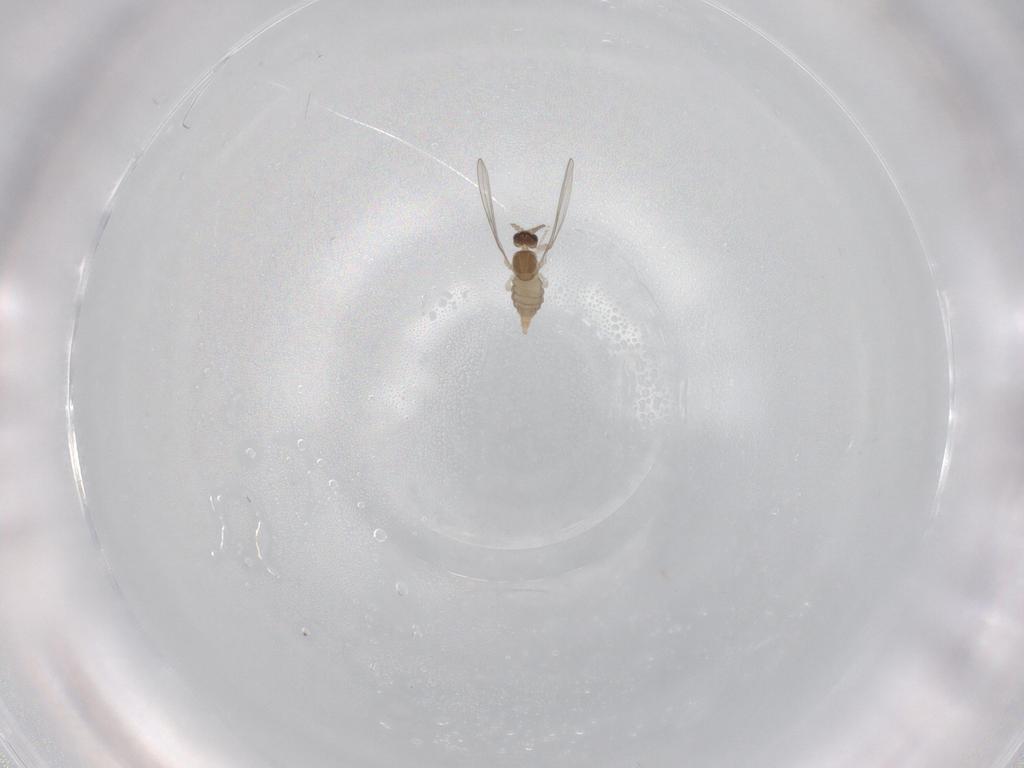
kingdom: Animalia
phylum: Arthropoda
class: Insecta
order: Diptera
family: Cecidomyiidae
